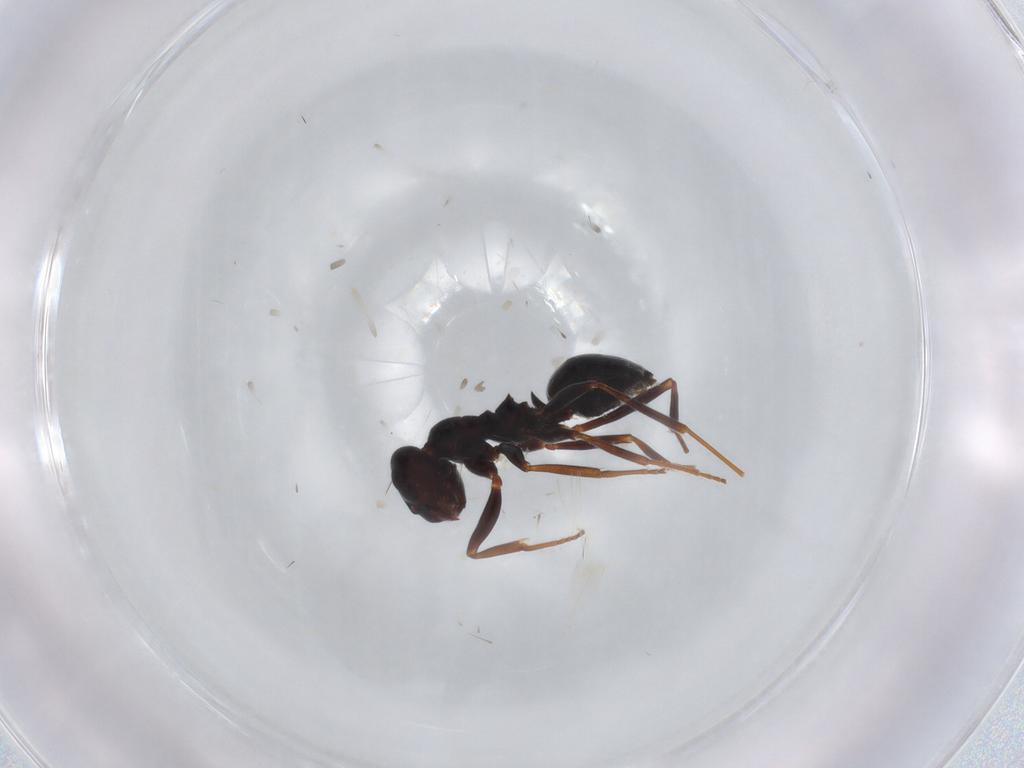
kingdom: Animalia
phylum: Arthropoda
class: Insecta
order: Hymenoptera
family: Formicidae
